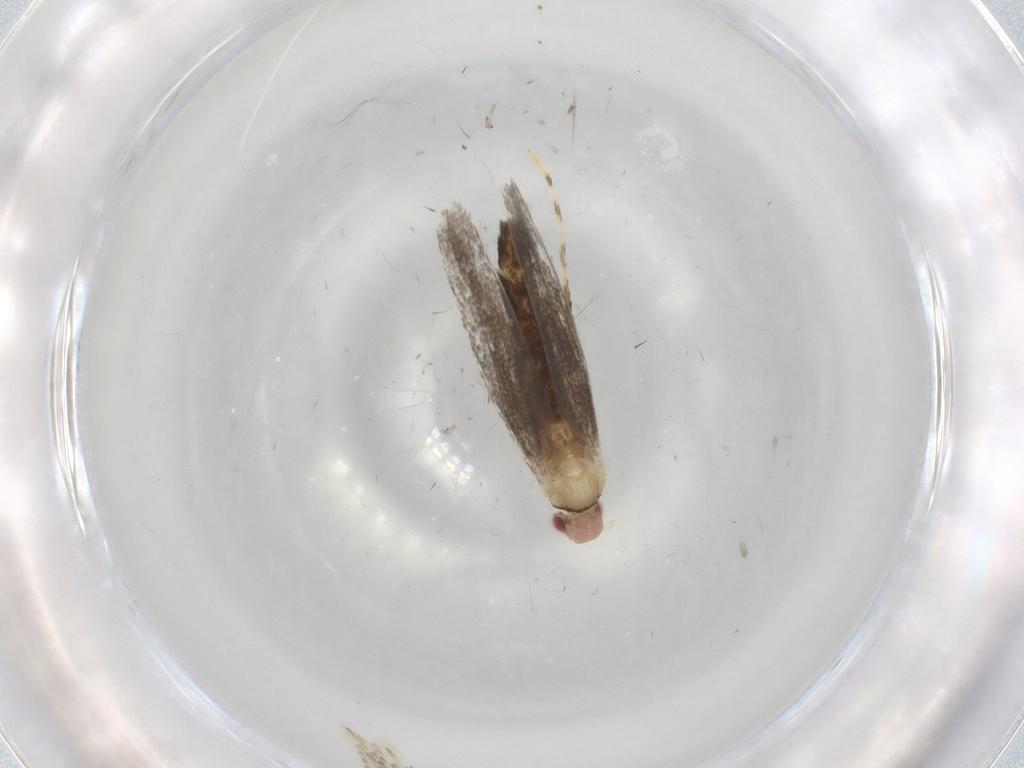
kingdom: Animalia
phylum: Arthropoda
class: Insecta
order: Lepidoptera
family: Gracillariidae
